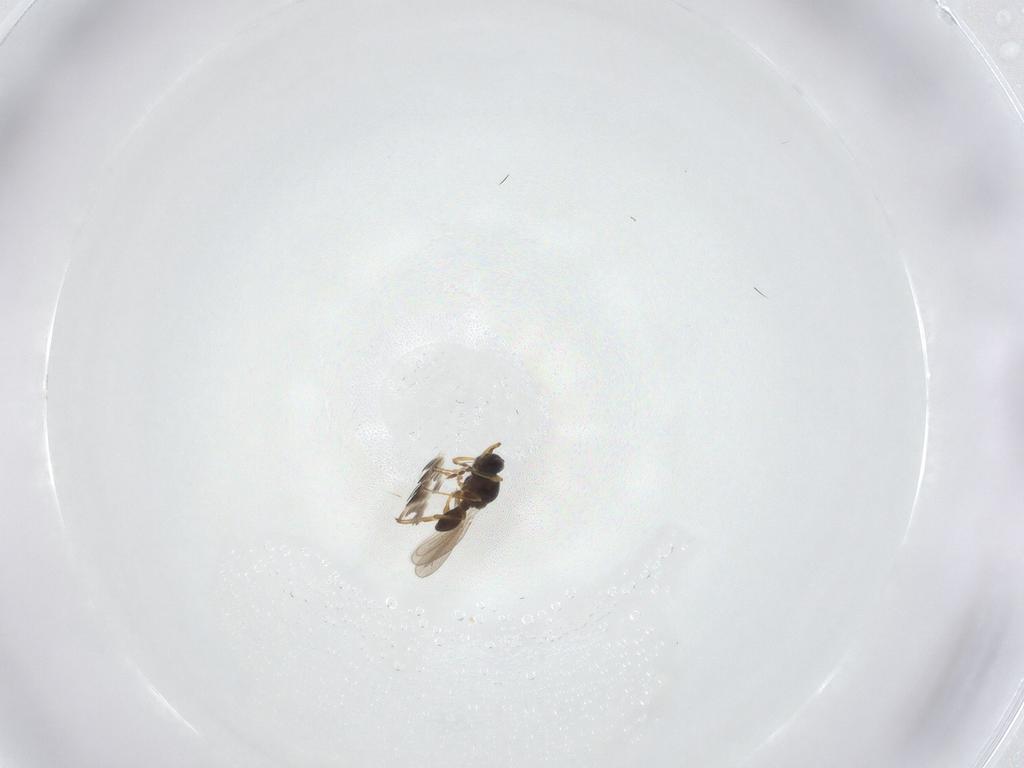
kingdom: Animalia
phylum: Arthropoda
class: Insecta
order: Hymenoptera
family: Platygastridae
